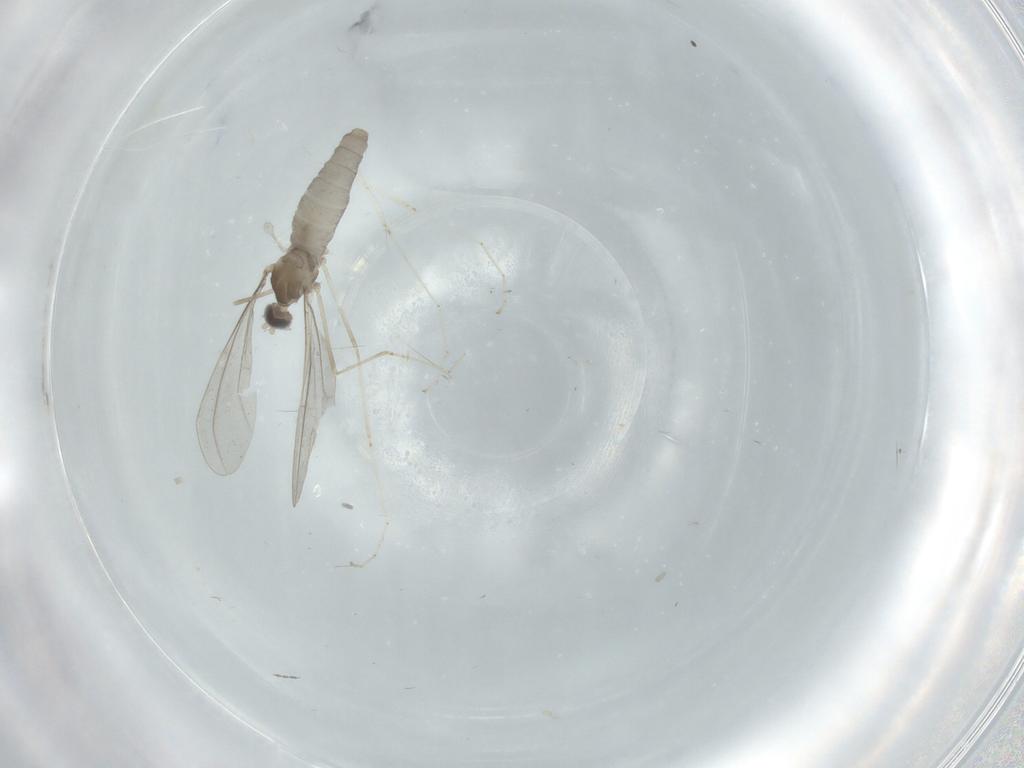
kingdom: Animalia
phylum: Arthropoda
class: Insecta
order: Diptera
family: Cecidomyiidae
